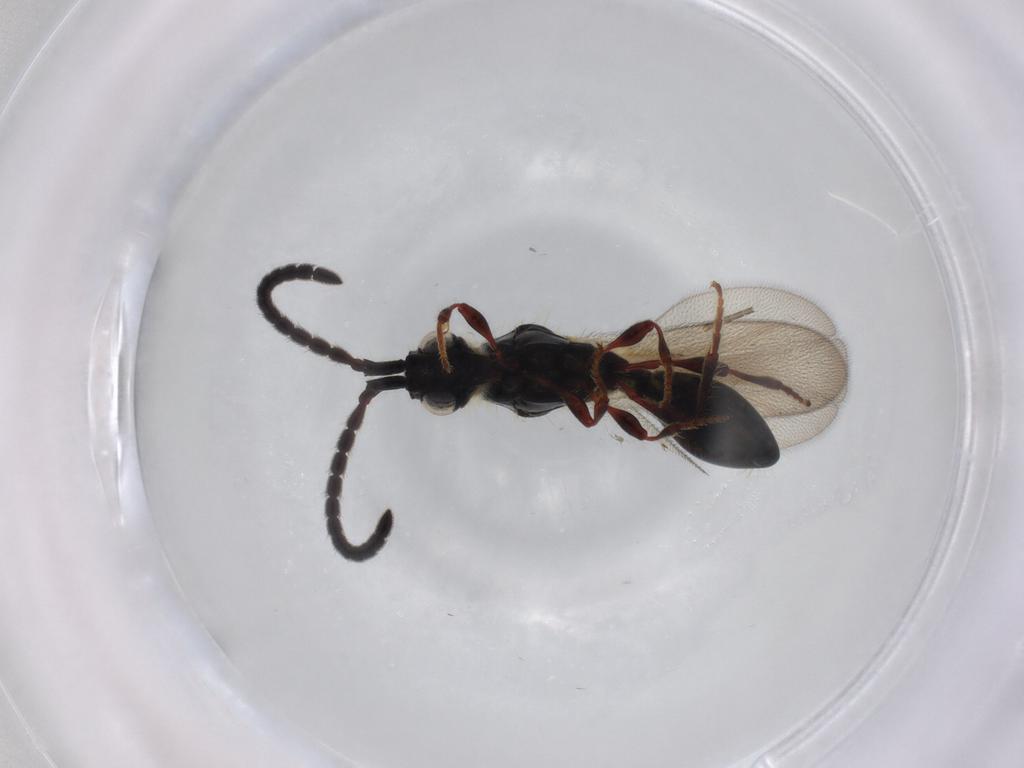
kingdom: Animalia
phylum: Arthropoda
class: Insecta
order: Hymenoptera
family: Diapriidae
